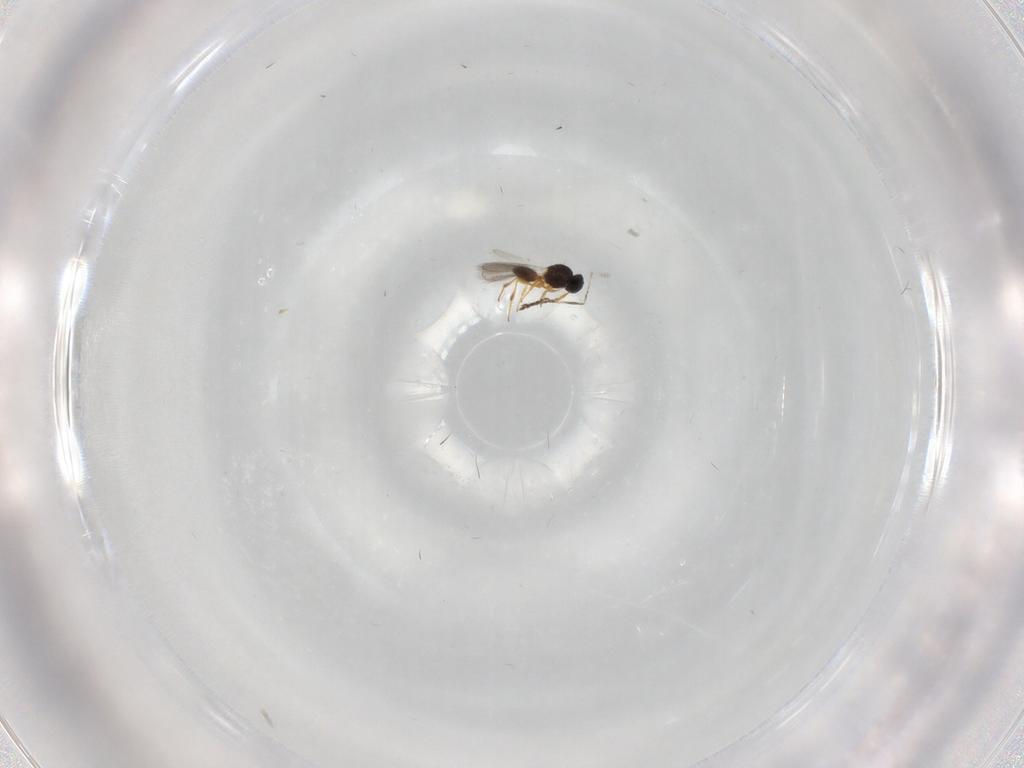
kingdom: Animalia
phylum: Arthropoda
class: Insecta
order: Hymenoptera
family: Platygastridae
